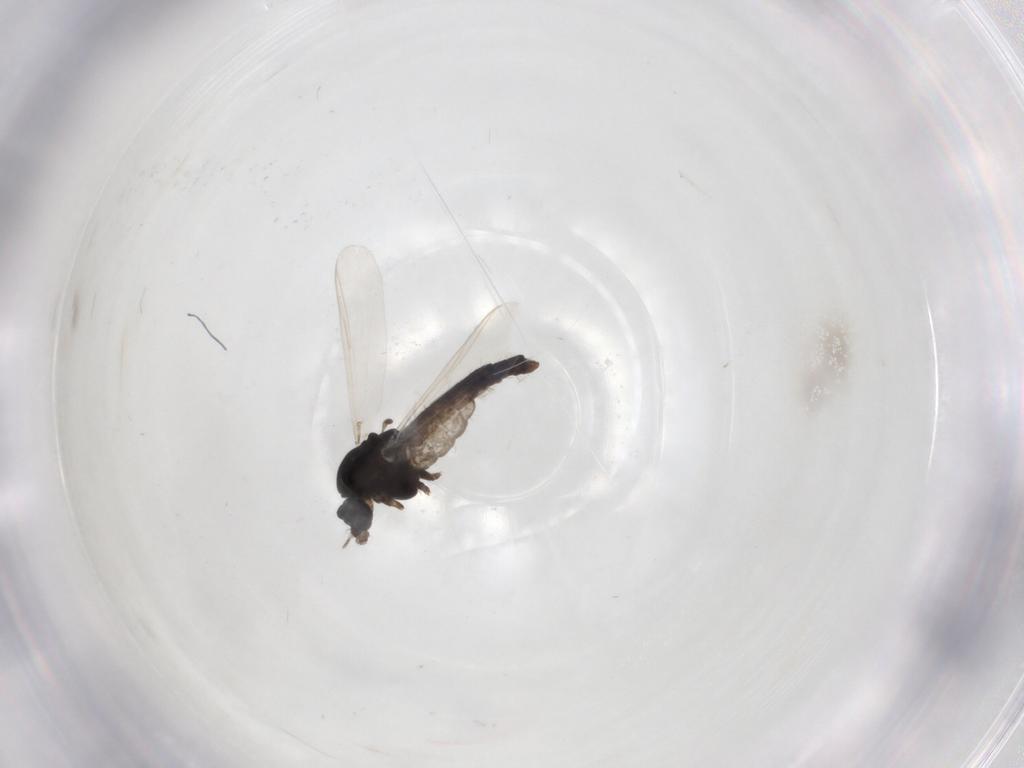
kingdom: Animalia
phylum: Arthropoda
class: Insecta
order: Diptera
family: Chironomidae
